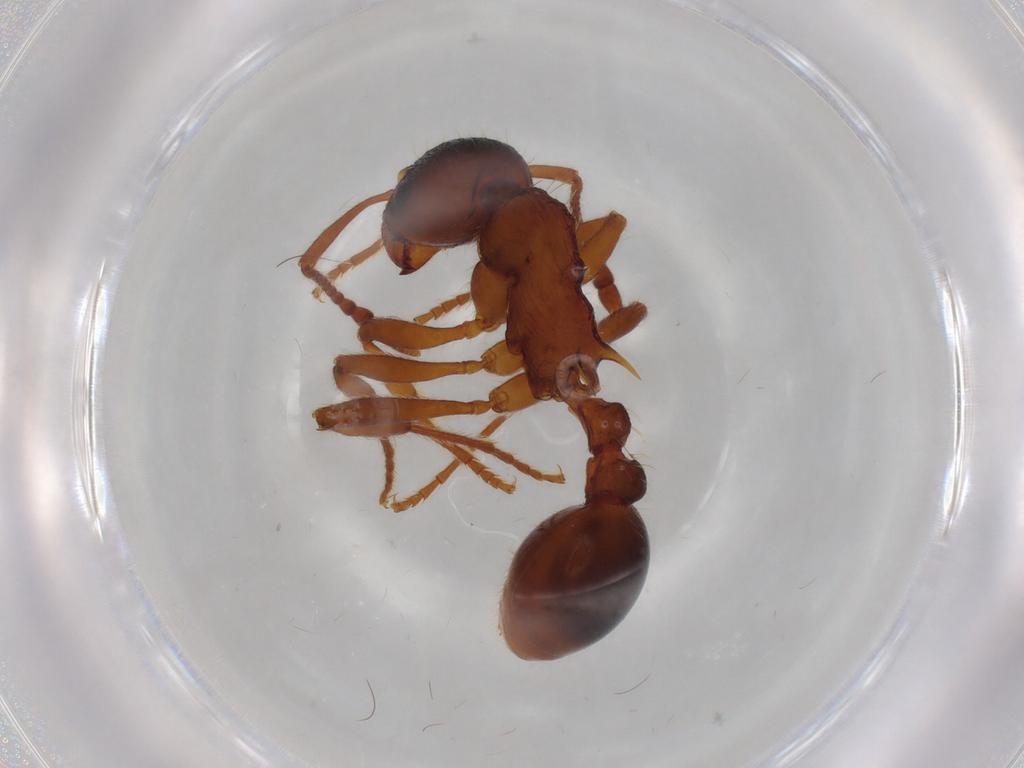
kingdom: Animalia
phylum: Arthropoda
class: Insecta
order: Hymenoptera
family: Formicidae
